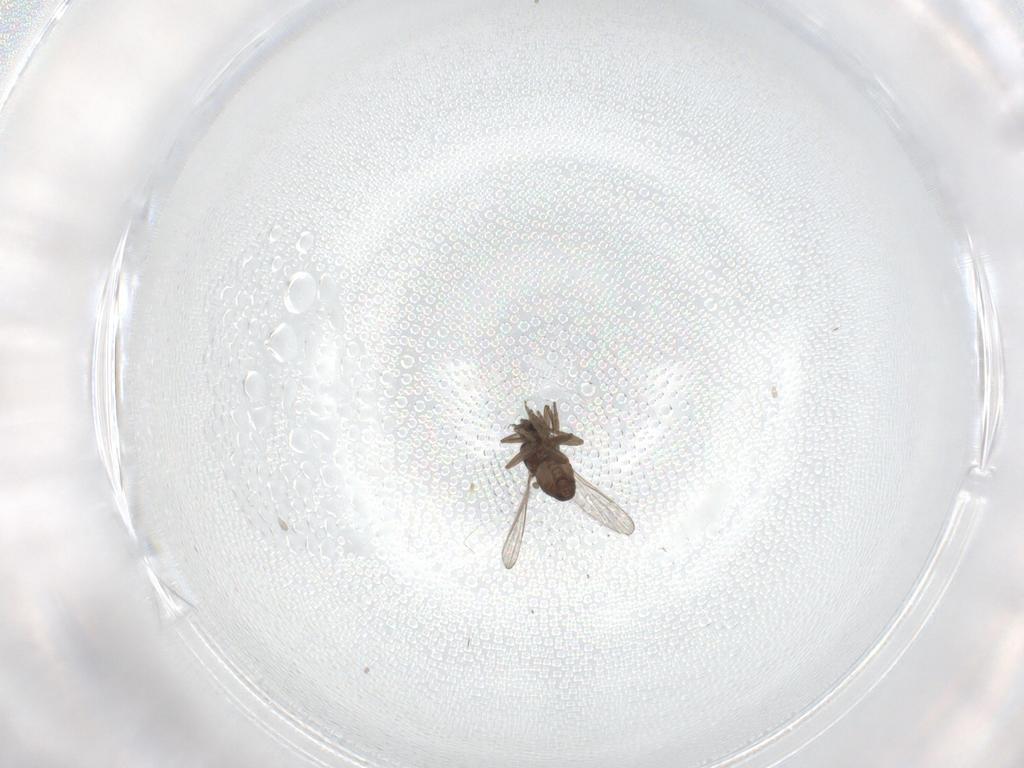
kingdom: Animalia
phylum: Arthropoda
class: Insecta
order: Diptera
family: Ceratopogonidae
